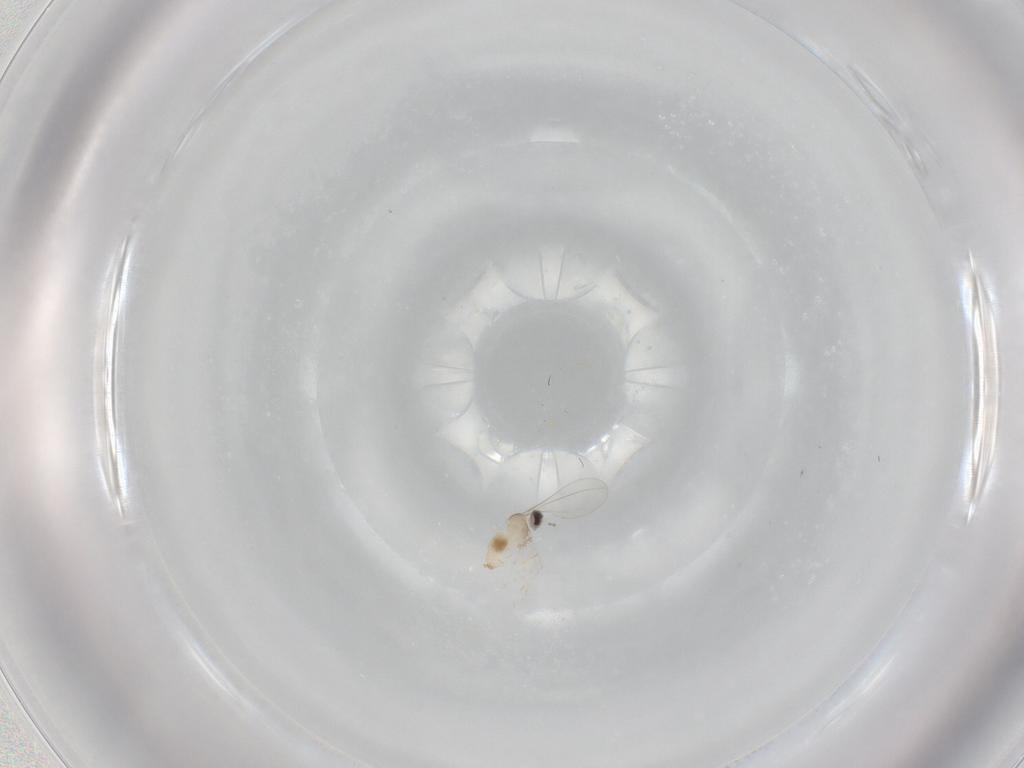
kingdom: Animalia
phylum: Arthropoda
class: Insecta
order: Diptera
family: Cecidomyiidae
